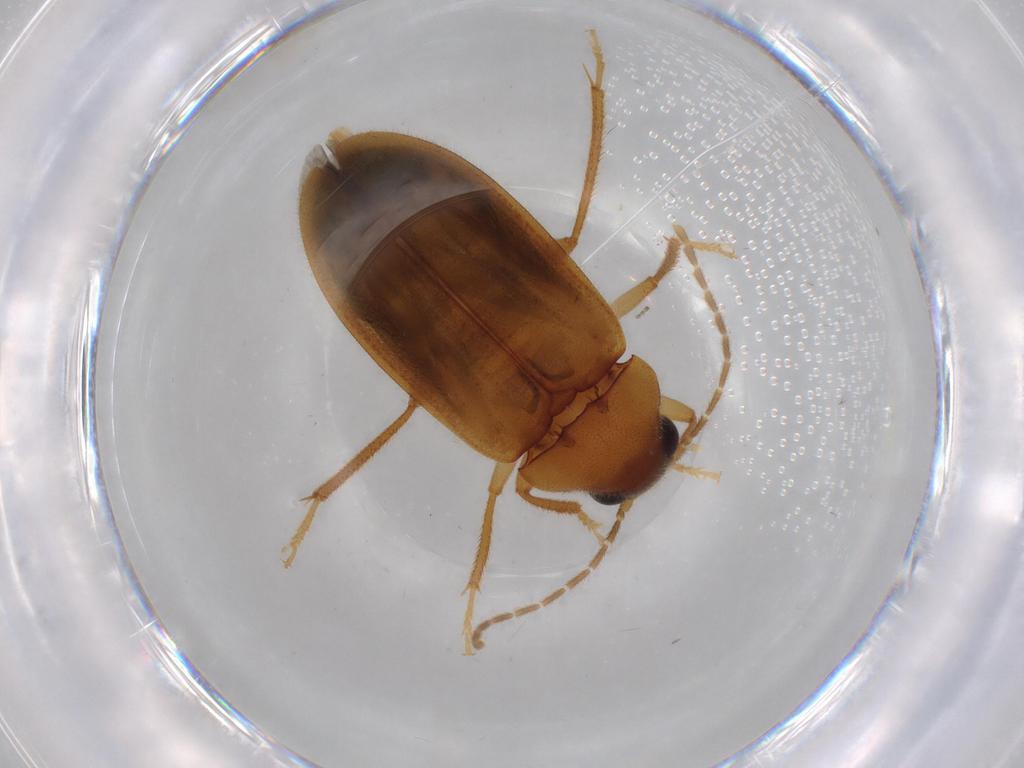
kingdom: Animalia
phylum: Arthropoda
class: Insecta
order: Coleoptera
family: Ptilodactylidae
